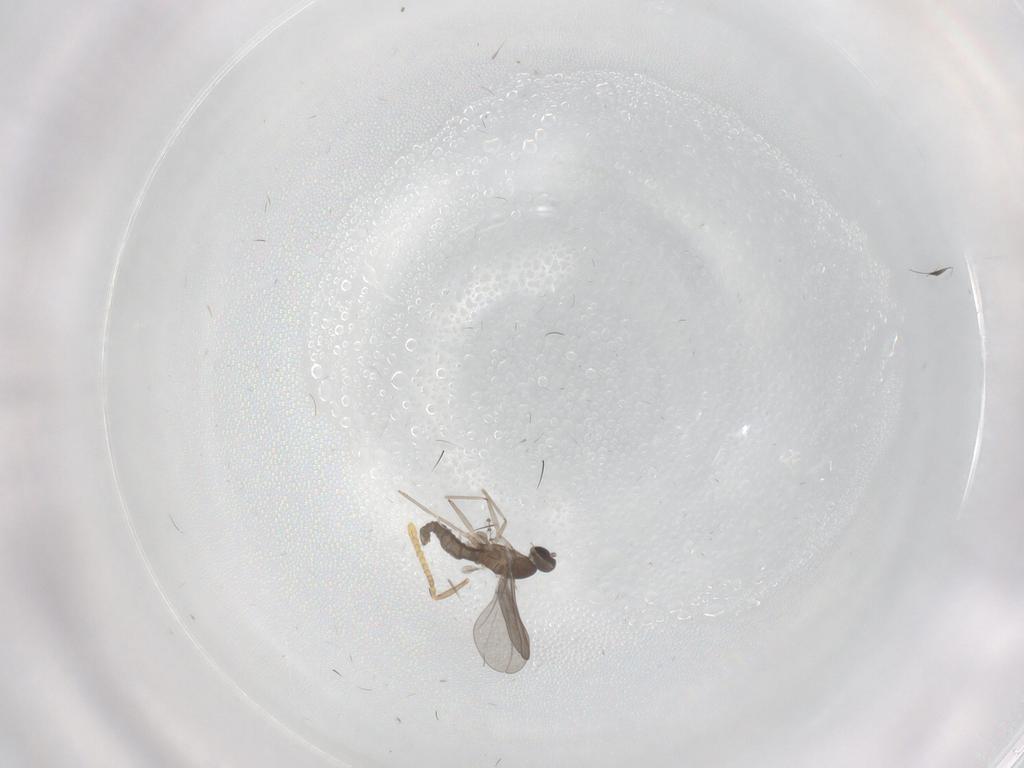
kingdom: Animalia
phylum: Arthropoda
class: Insecta
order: Diptera
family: Cecidomyiidae
